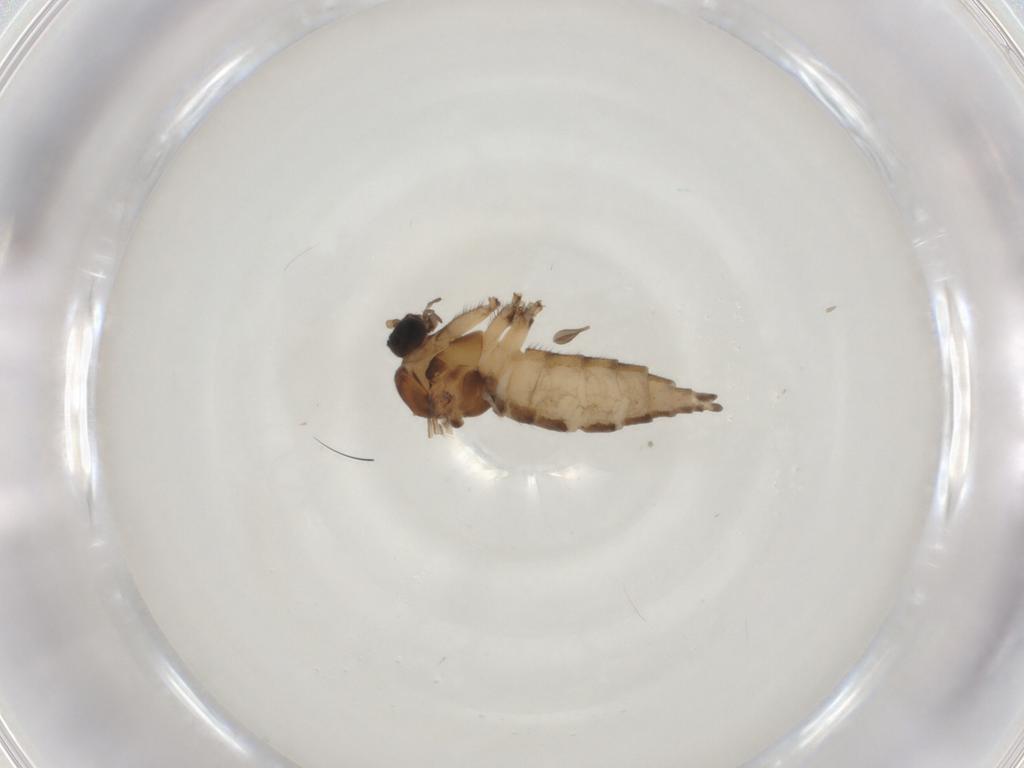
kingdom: Animalia
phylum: Arthropoda
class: Insecta
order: Diptera
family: Sciaridae
